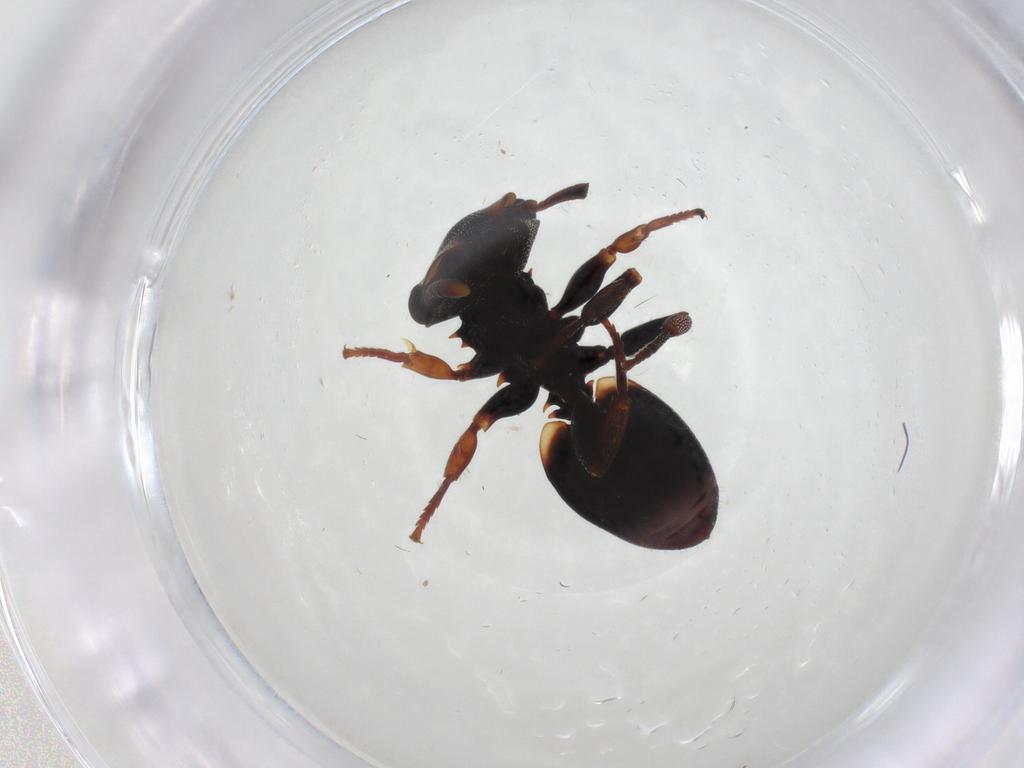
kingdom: Animalia
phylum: Arthropoda
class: Insecta
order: Hymenoptera
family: Formicidae
